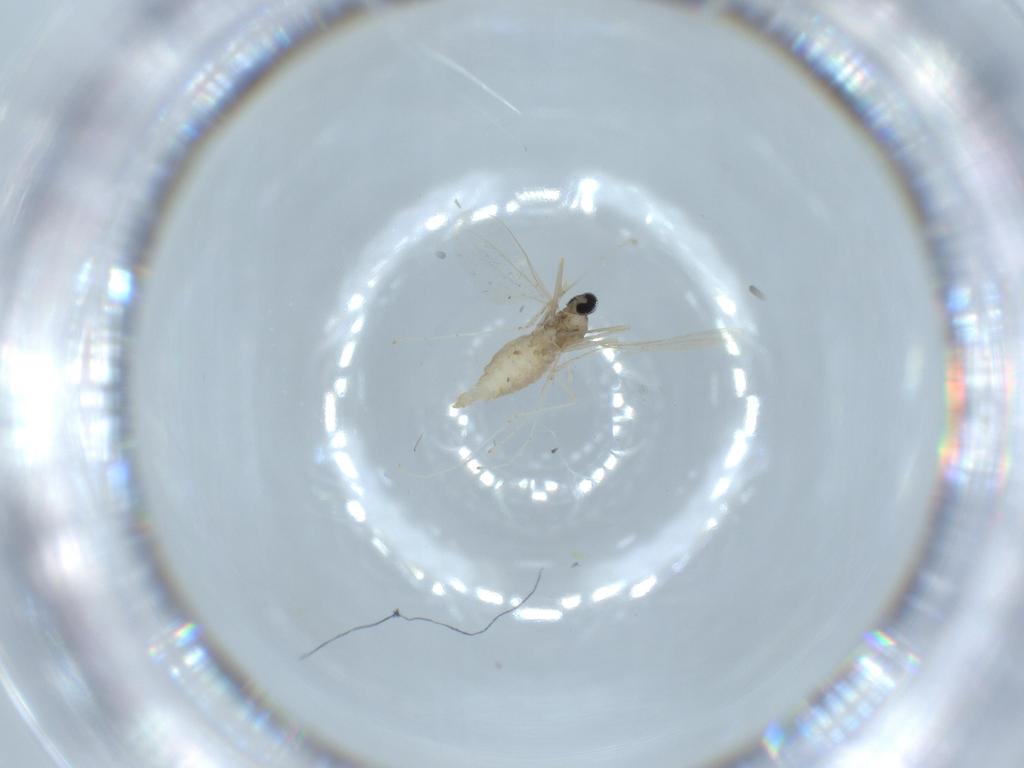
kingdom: Animalia
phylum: Arthropoda
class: Insecta
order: Diptera
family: Cecidomyiidae
